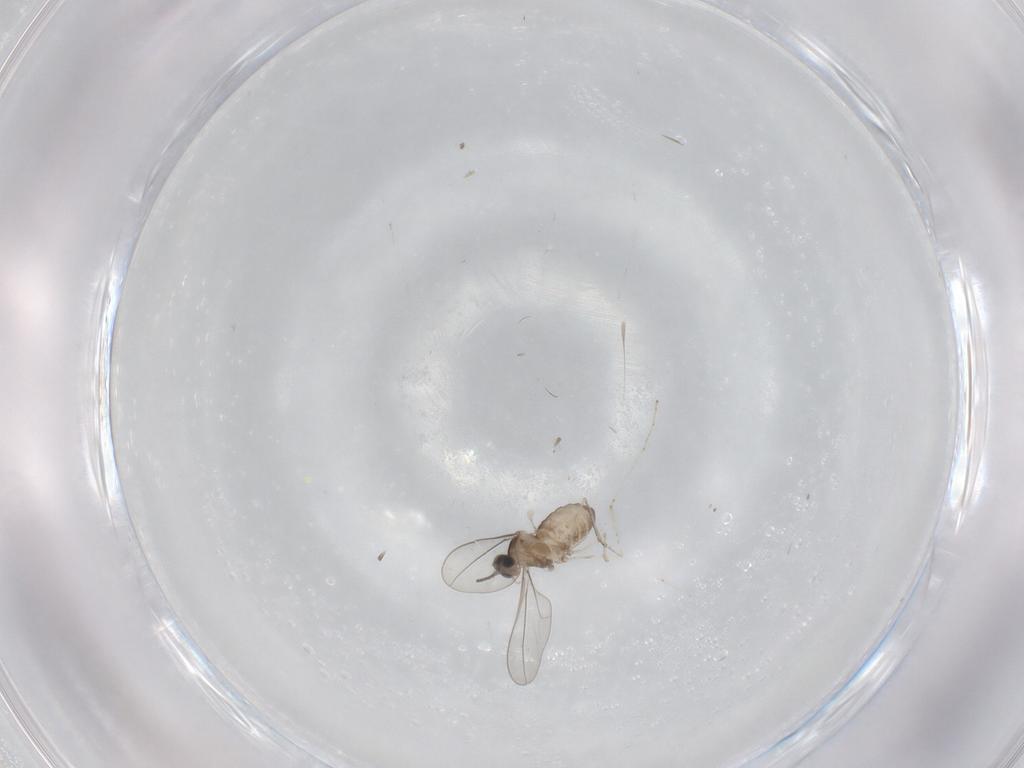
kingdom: Animalia
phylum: Arthropoda
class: Insecta
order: Diptera
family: Cecidomyiidae
